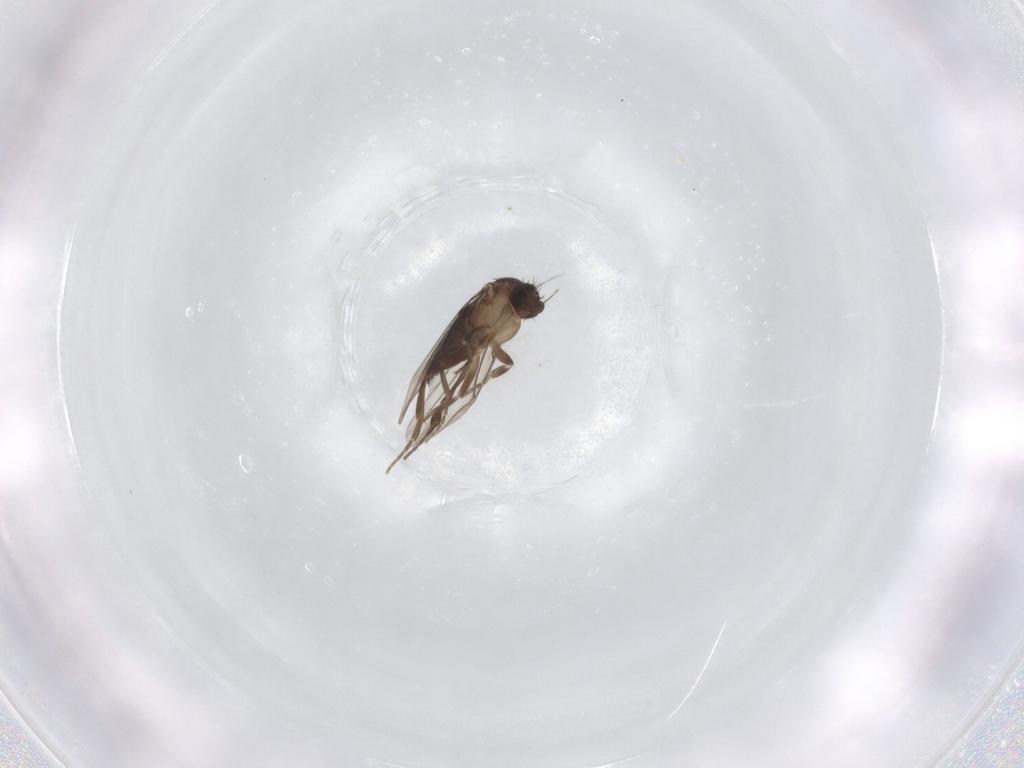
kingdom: Animalia
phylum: Arthropoda
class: Insecta
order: Diptera
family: Phoridae
